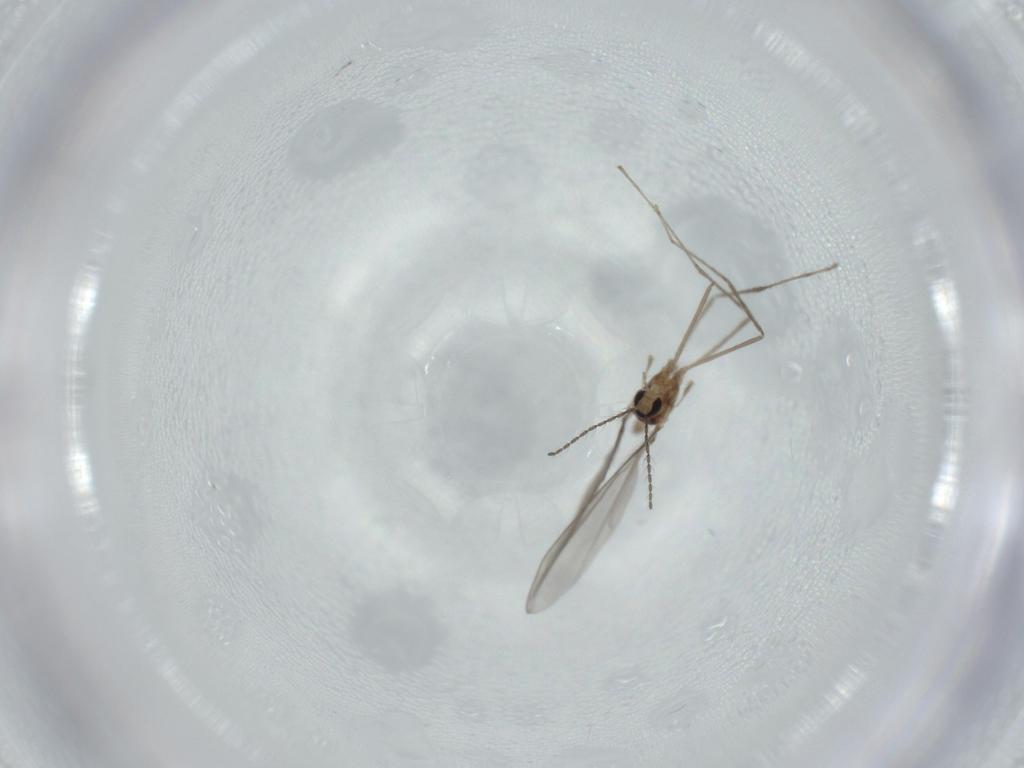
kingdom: Animalia
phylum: Arthropoda
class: Insecta
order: Diptera
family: Cecidomyiidae
